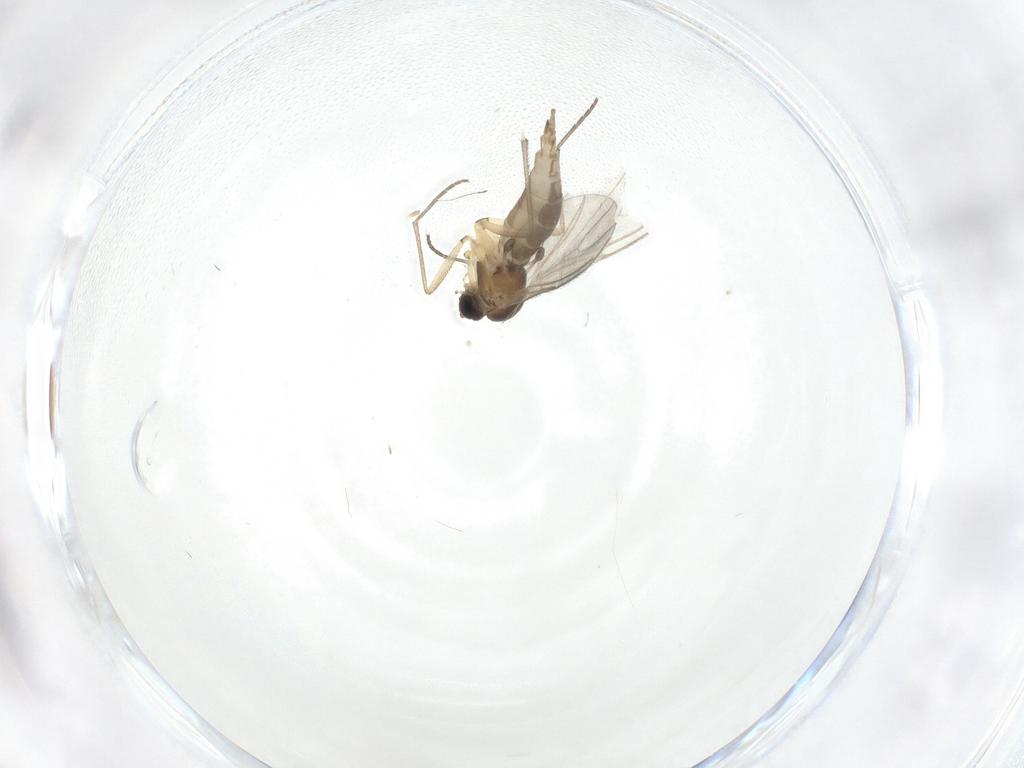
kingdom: Animalia
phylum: Arthropoda
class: Insecta
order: Diptera
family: Sciaridae
